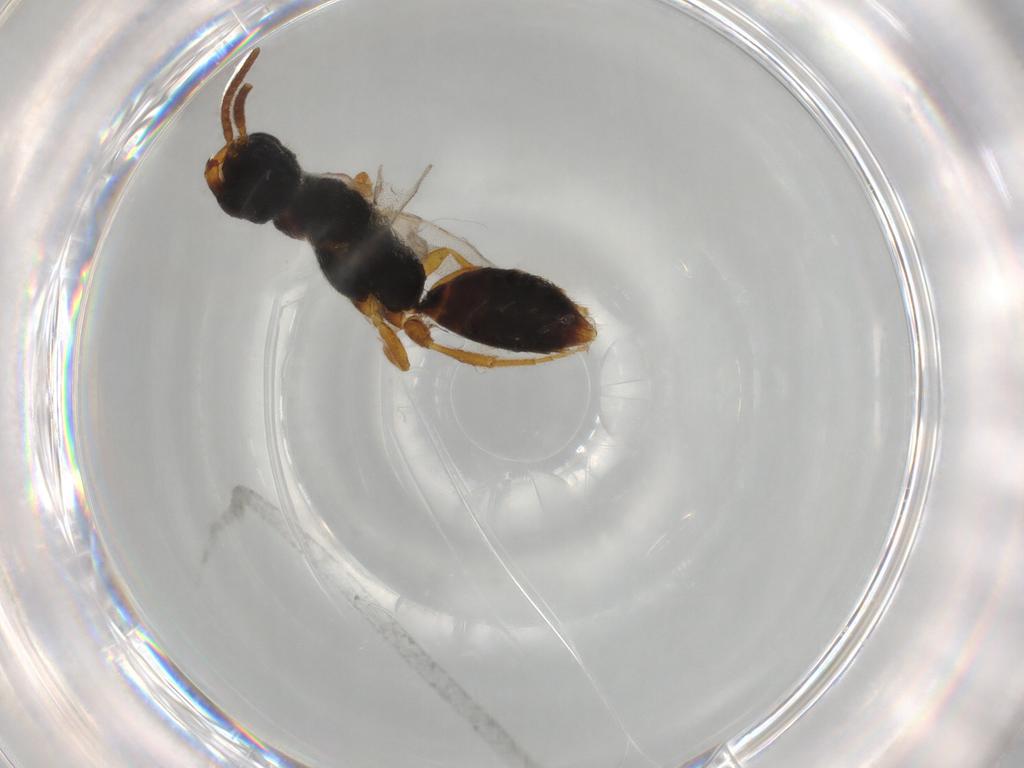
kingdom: Animalia
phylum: Arthropoda
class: Insecta
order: Hymenoptera
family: Bethylidae
